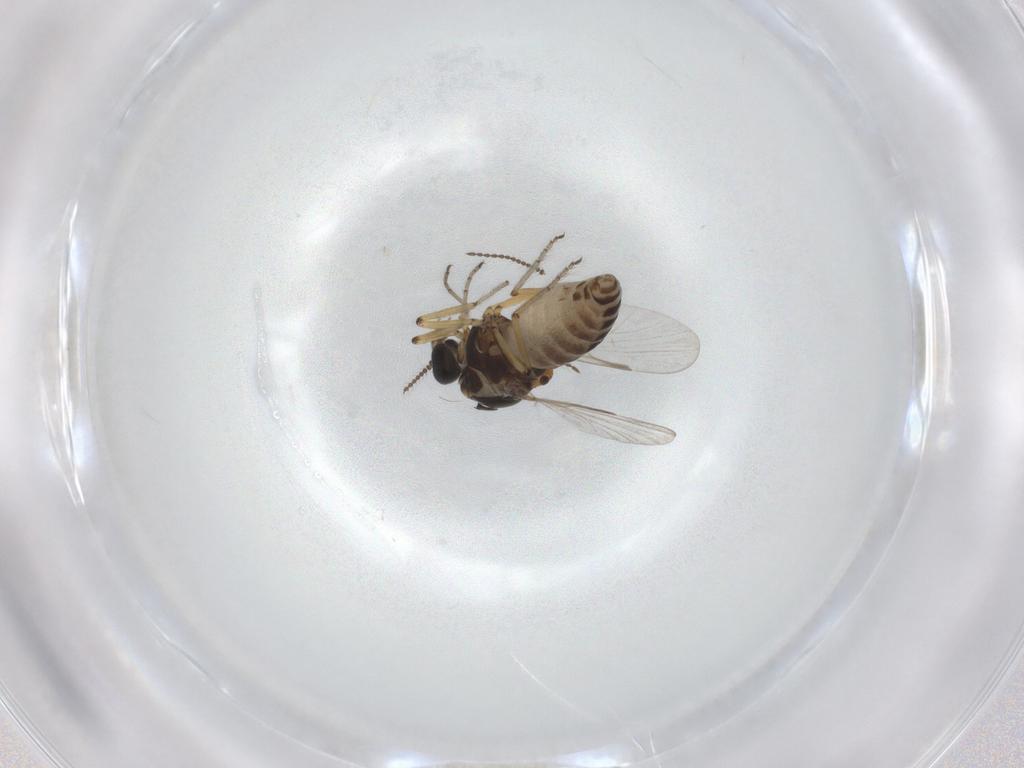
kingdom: Animalia
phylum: Arthropoda
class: Insecta
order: Diptera
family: Ceratopogonidae
